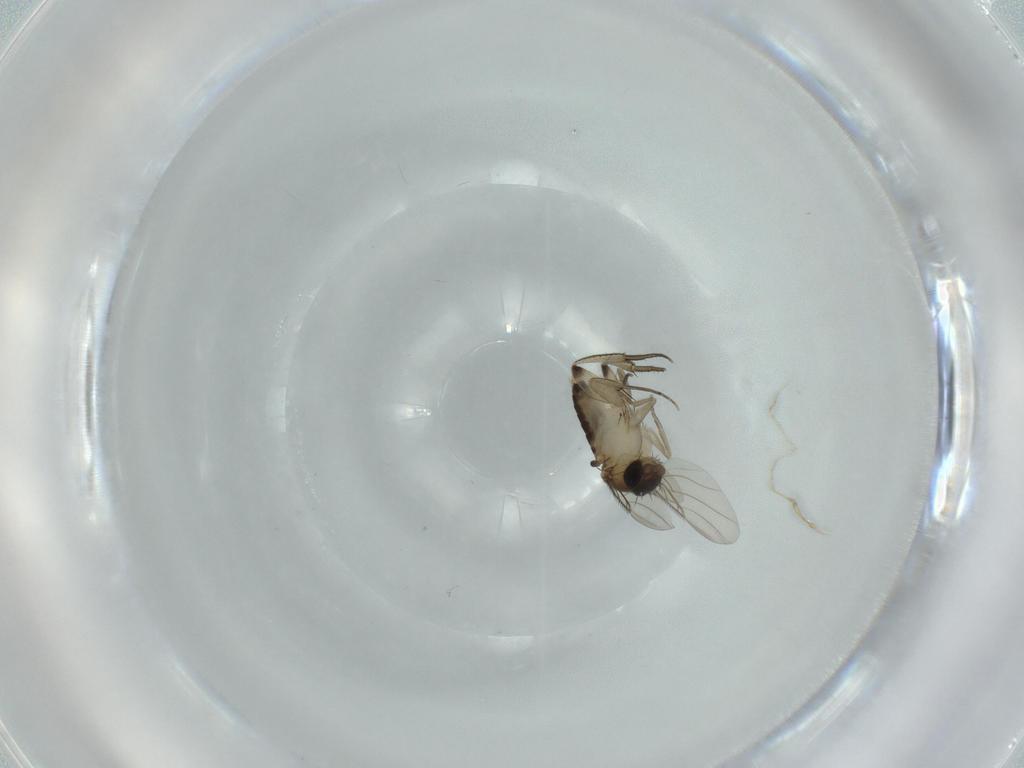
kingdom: Animalia
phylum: Arthropoda
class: Insecta
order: Diptera
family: Phoridae
